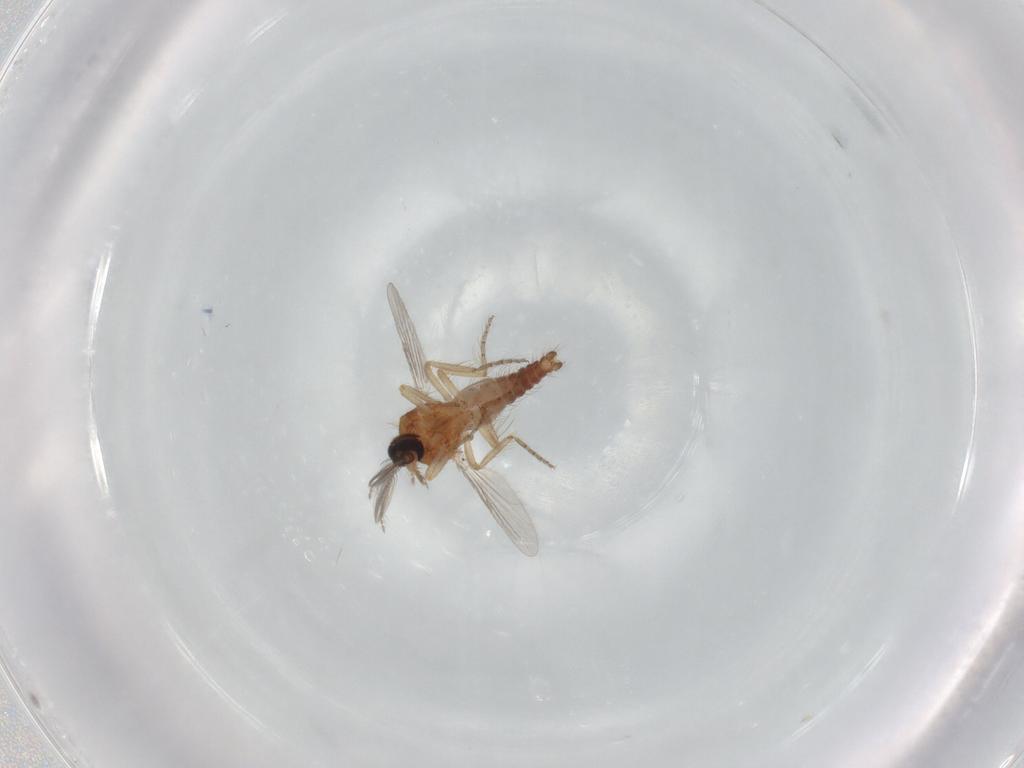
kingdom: Animalia
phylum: Arthropoda
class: Insecta
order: Diptera
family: Ceratopogonidae
